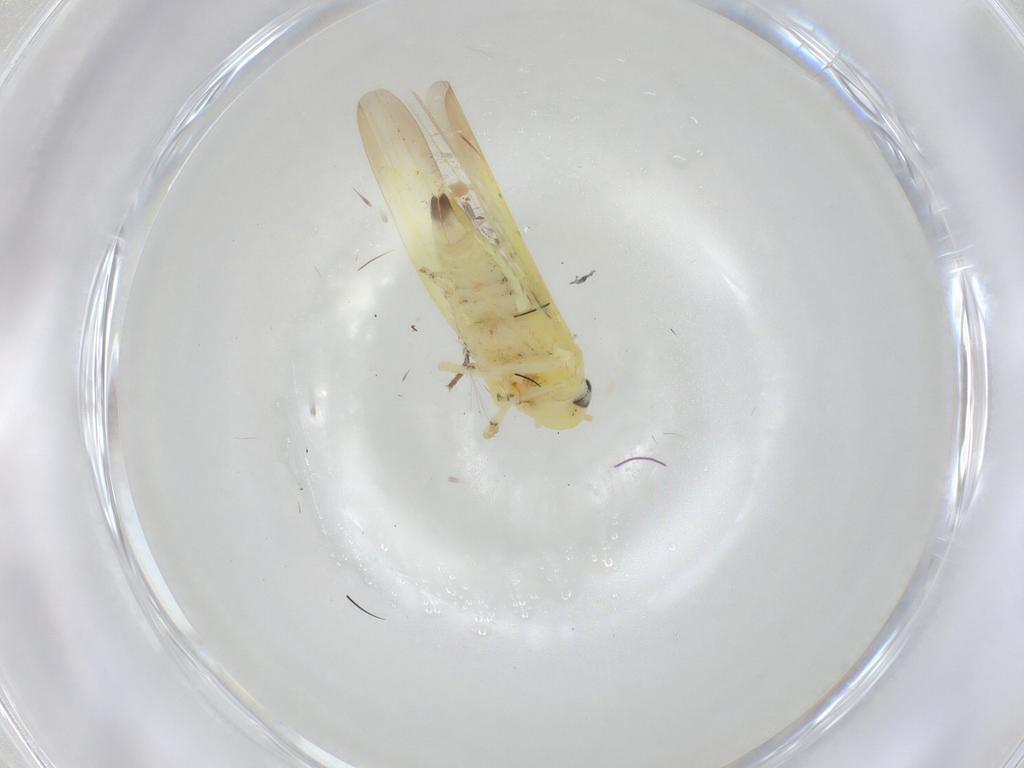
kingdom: Animalia
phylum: Arthropoda
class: Insecta
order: Hemiptera
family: Cicadellidae
